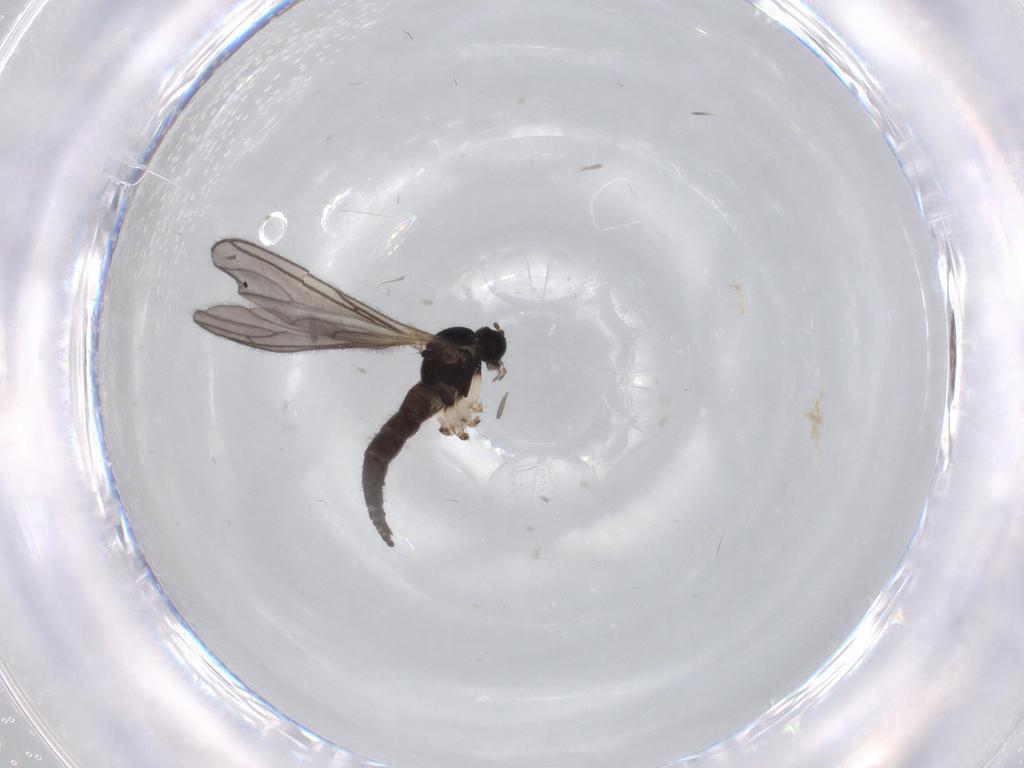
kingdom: Animalia
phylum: Arthropoda
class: Insecta
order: Diptera
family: Sciaridae
